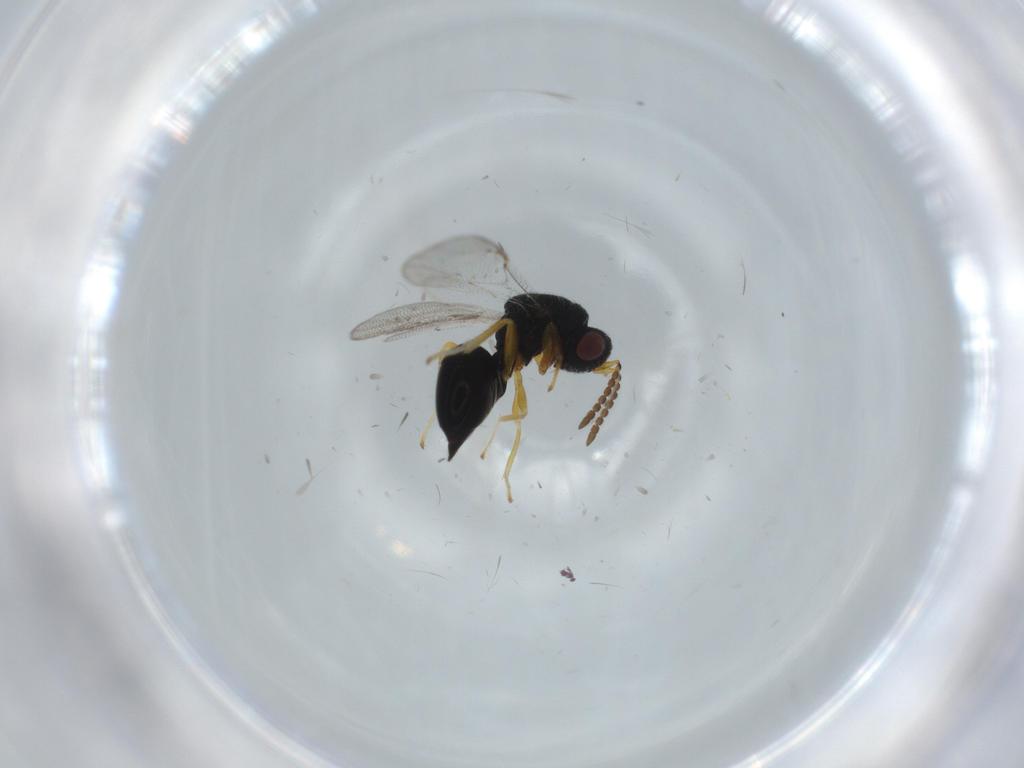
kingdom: Animalia
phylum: Arthropoda
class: Insecta
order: Hymenoptera
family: Eurytomidae
